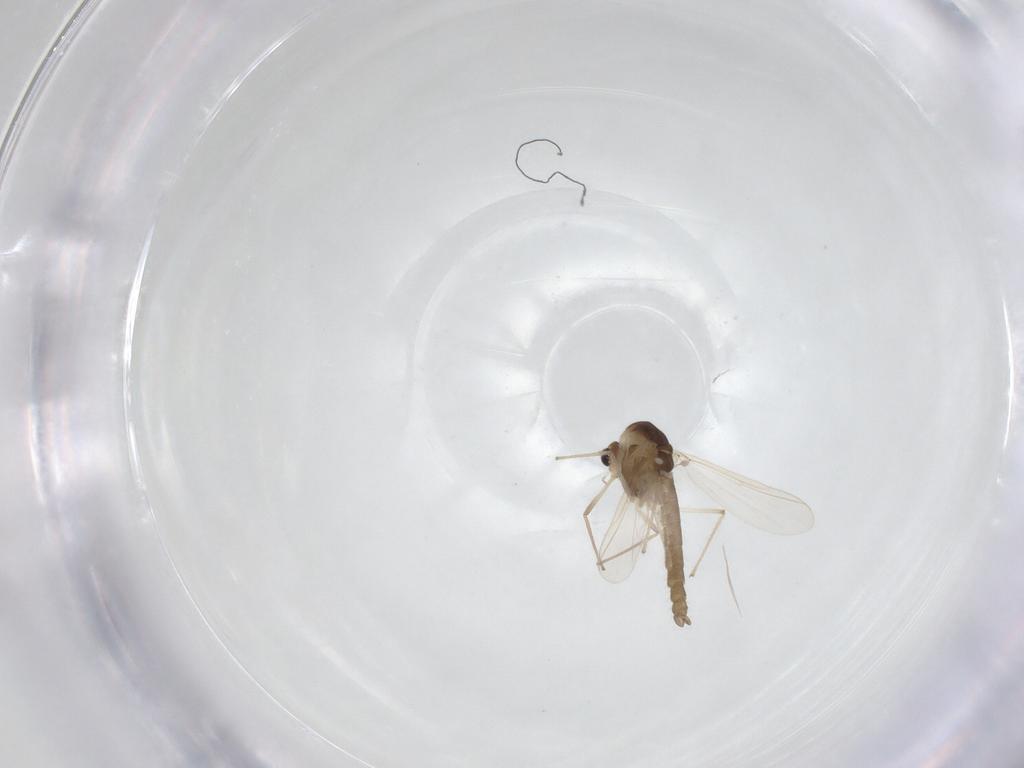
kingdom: Animalia
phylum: Arthropoda
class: Insecta
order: Diptera
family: Chironomidae
